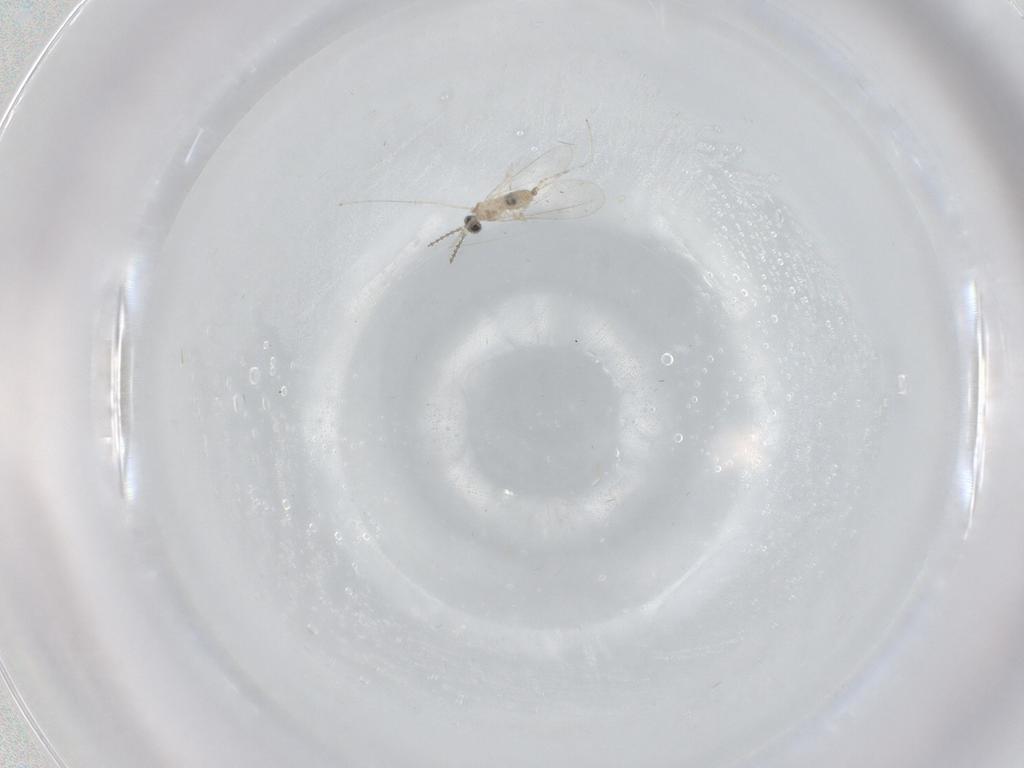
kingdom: Animalia
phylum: Arthropoda
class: Insecta
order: Diptera
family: Cecidomyiidae
